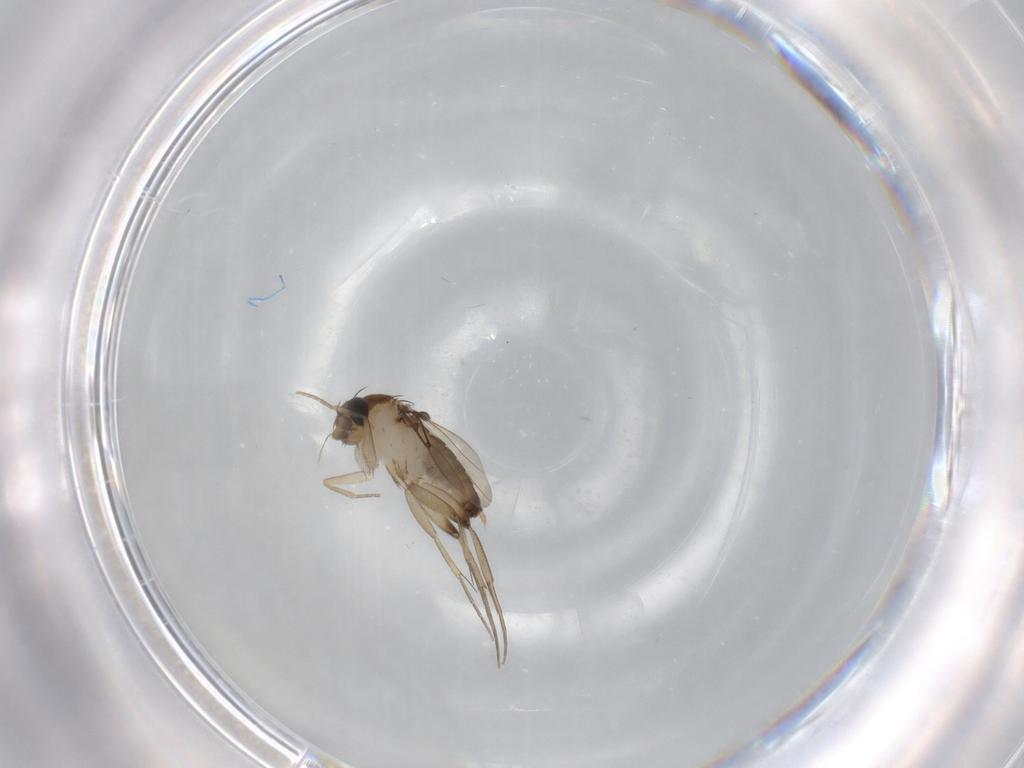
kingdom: Animalia
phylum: Arthropoda
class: Insecta
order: Diptera
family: Phoridae
